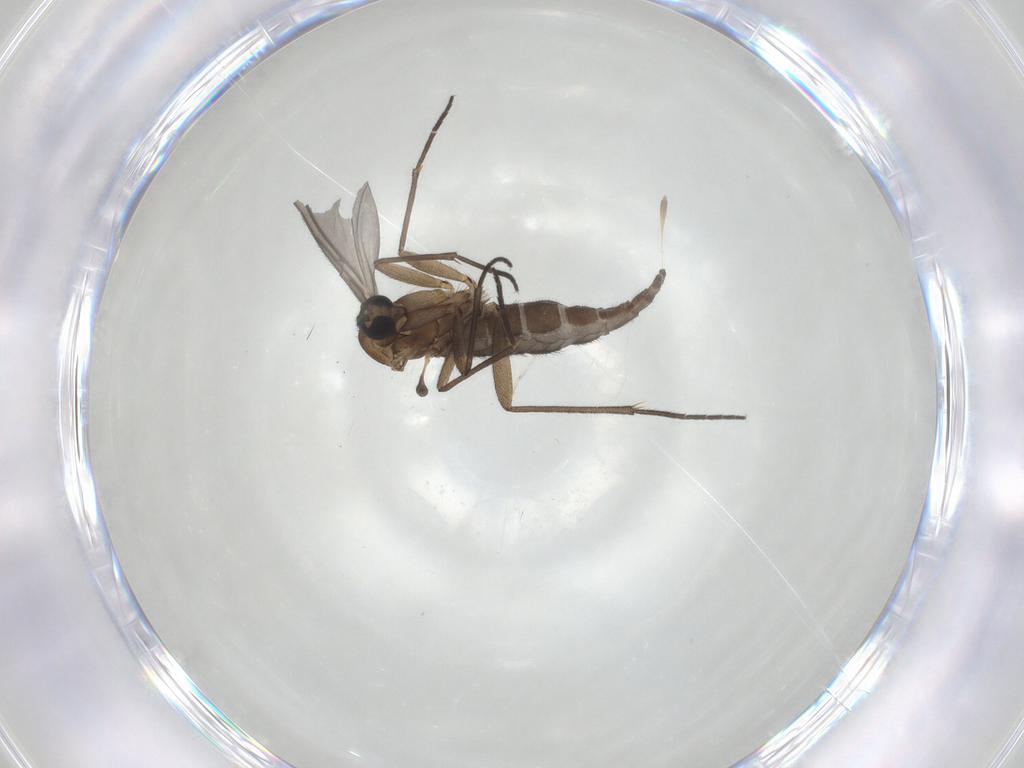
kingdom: Animalia
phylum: Arthropoda
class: Insecta
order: Diptera
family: Sciaridae
